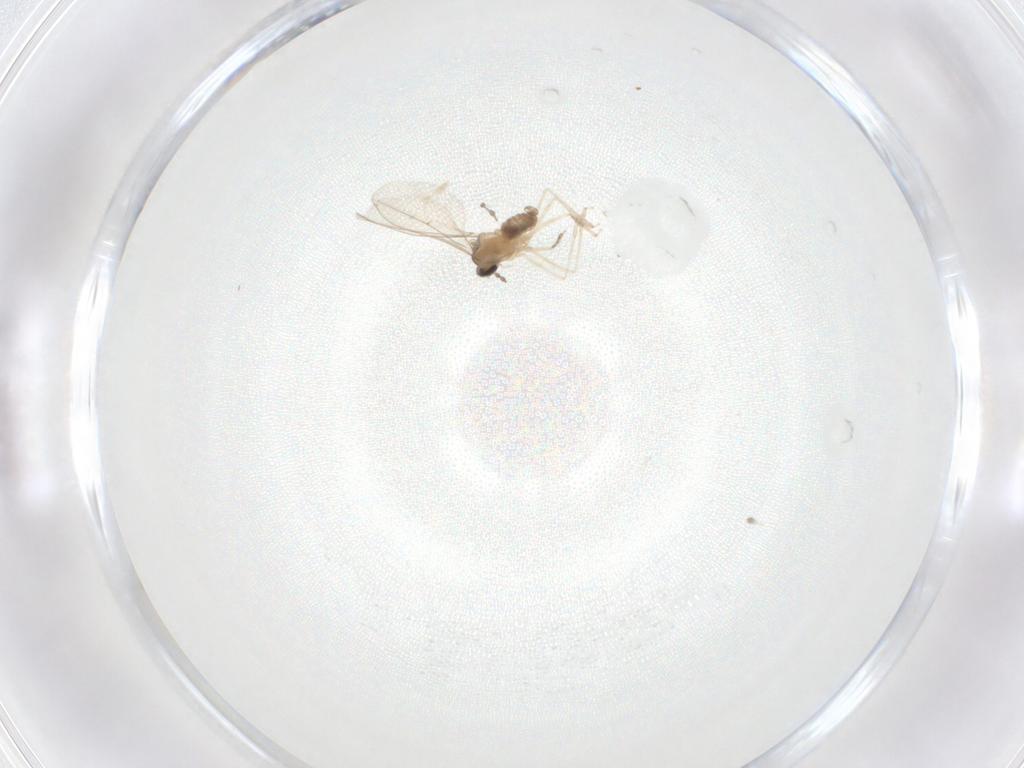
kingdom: Animalia
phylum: Arthropoda
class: Insecta
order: Diptera
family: Cecidomyiidae
